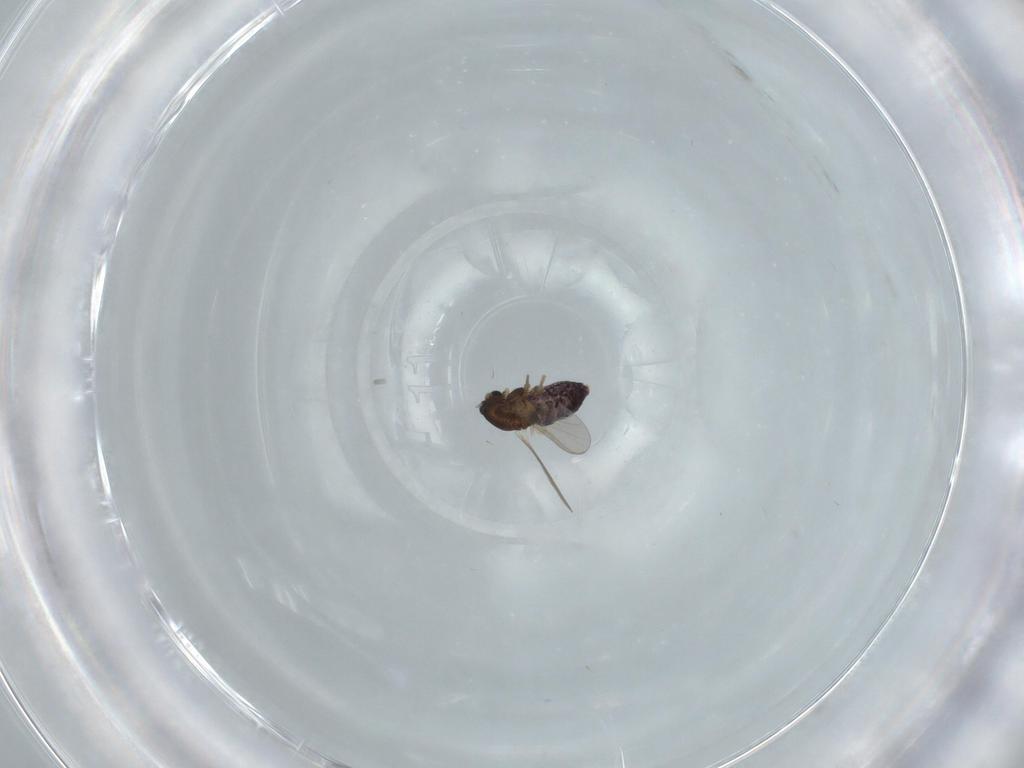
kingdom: Animalia
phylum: Arthropoda
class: Insecta
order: Diptera
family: Chironomidae
